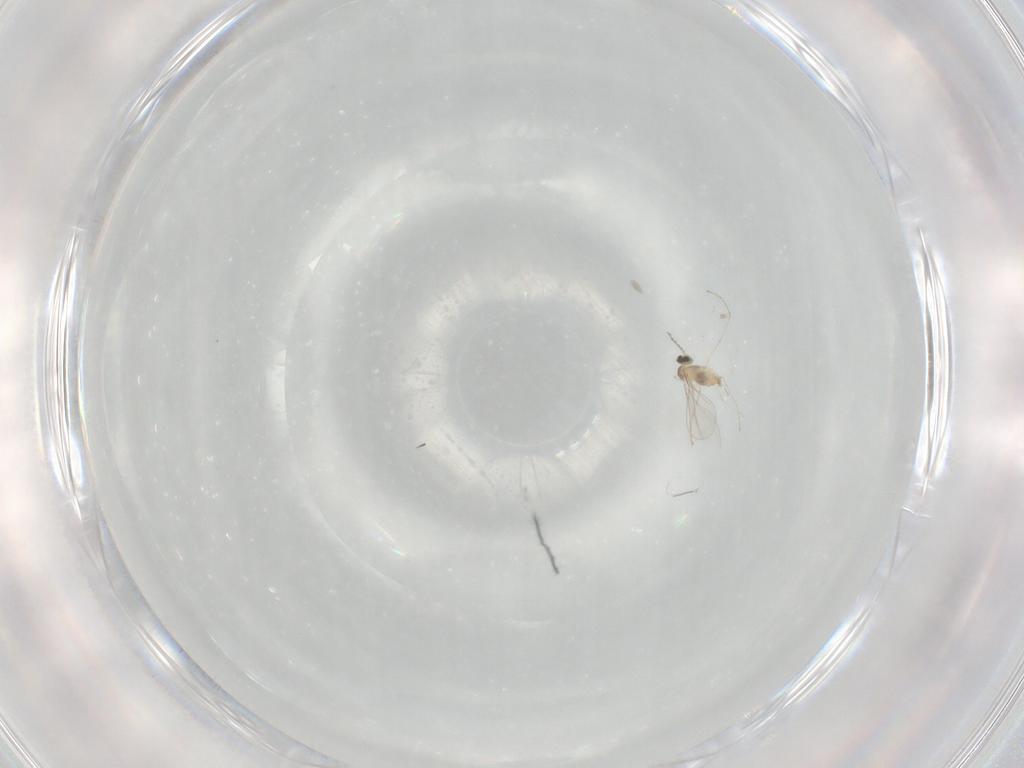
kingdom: Animalia
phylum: Arthropoda
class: Insecta
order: Diptera
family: Cecidomyiidae
